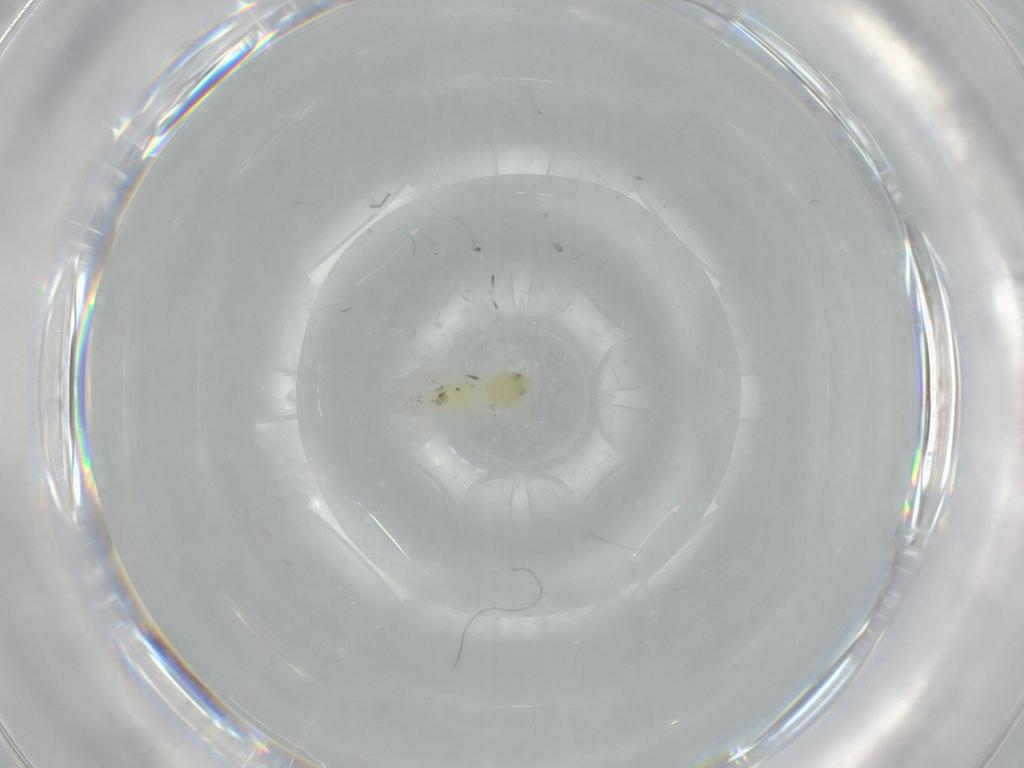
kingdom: Animalia
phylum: Arthropoda
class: Insecta
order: Hemiptera
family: Aleyrodidae
